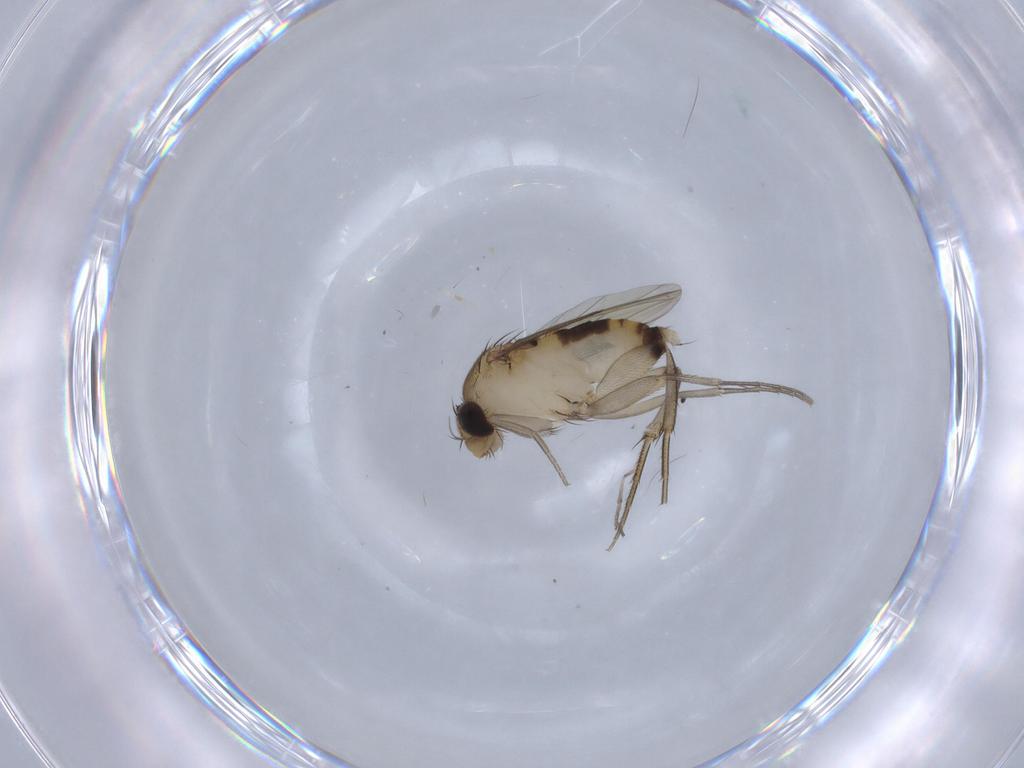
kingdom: Animalia
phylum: Arthropoda
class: Insecta
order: Diptera
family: Phoridae
